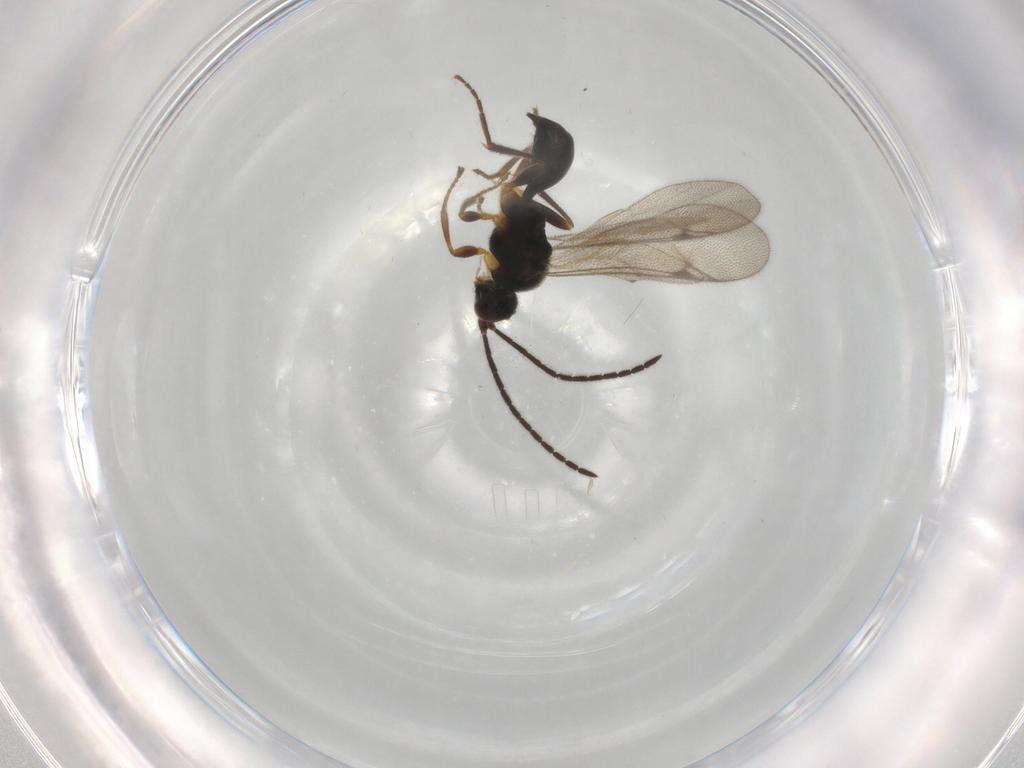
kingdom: Animalia
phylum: Arthropoda
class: Insecta
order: Hymenoptera
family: Proctotrupidae
